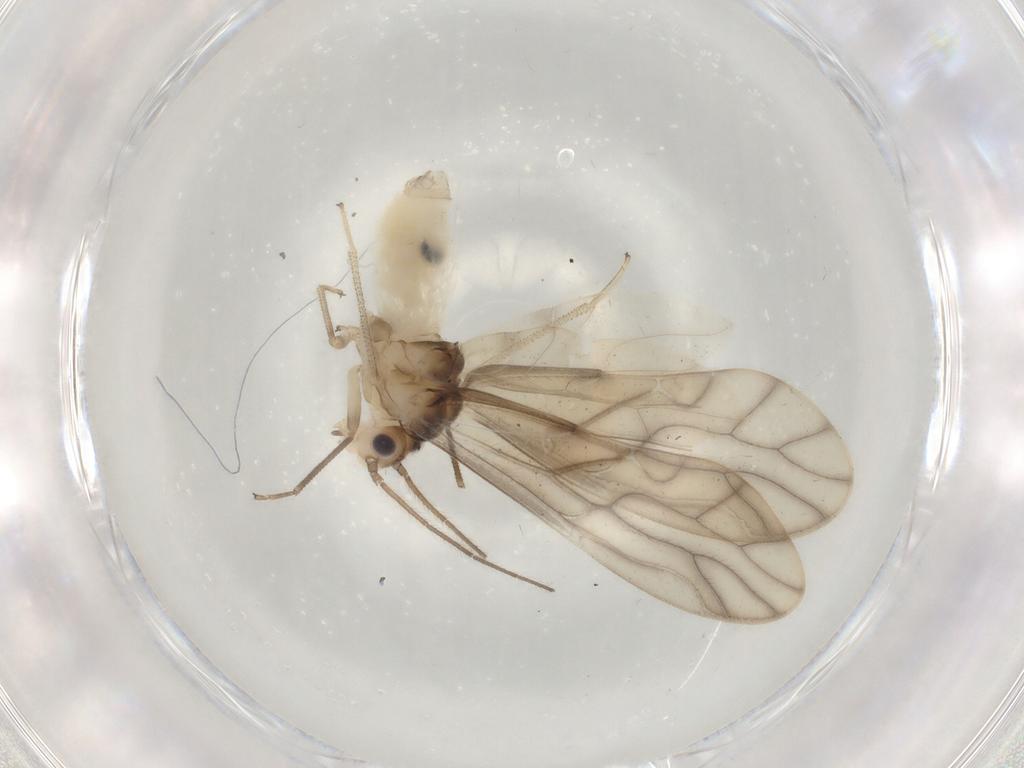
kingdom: Animalia
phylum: Arthropoda
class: Insecta
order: Psocodea
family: Caeciliusidae
